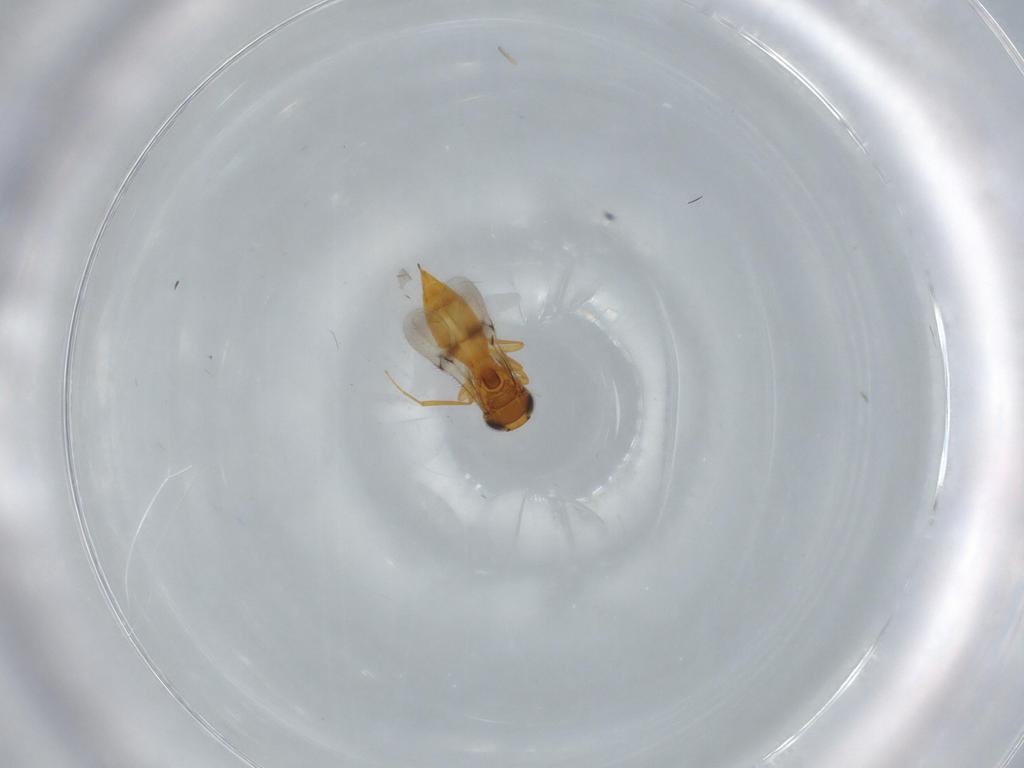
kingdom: Animalia
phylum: Arthropoda
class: Insecta
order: Hymenoptera
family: Scelionidae
